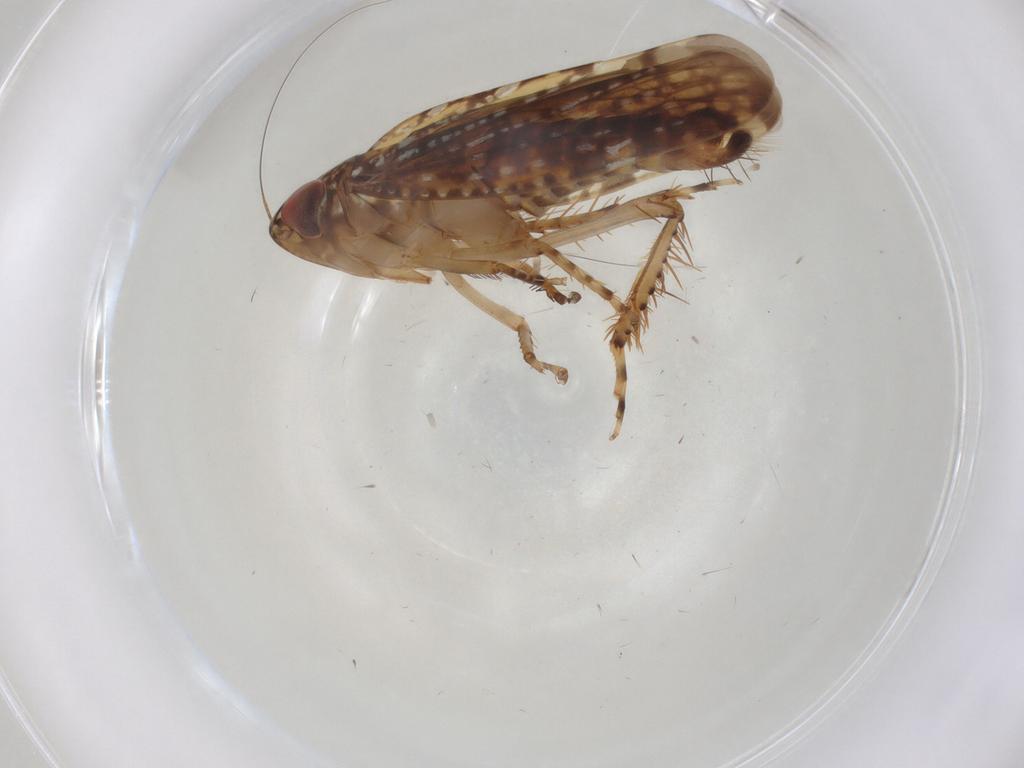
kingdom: Animalia
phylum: Arthropoda
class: Insecta
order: Hemiptera
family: Cicadellidae
